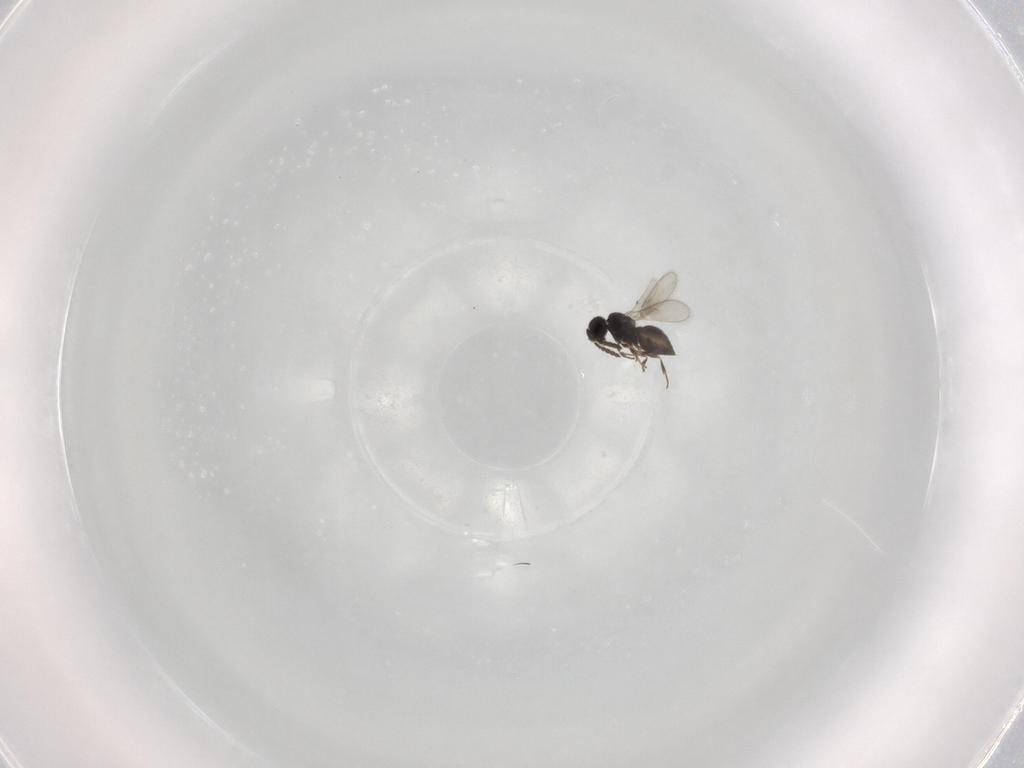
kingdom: Animalia
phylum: Arthropoda
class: Insecta
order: Hymenoptera
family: Scelionidae
